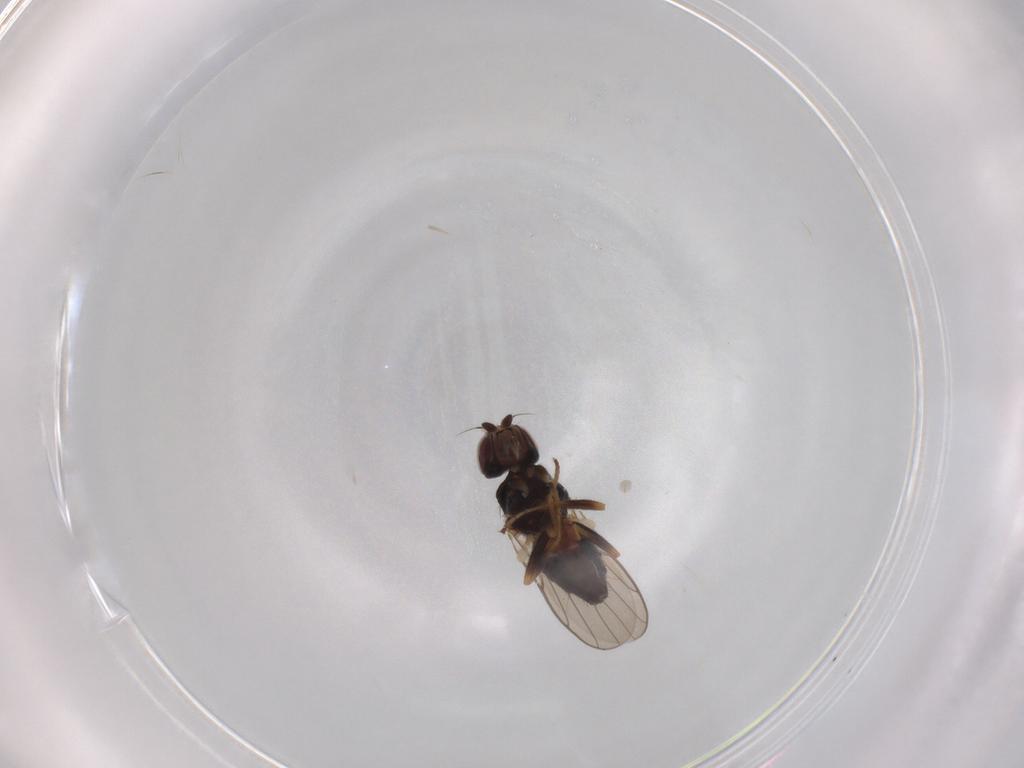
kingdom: Animalia
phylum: Arthropoda
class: Insecta
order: Diptera
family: Chloropidae
